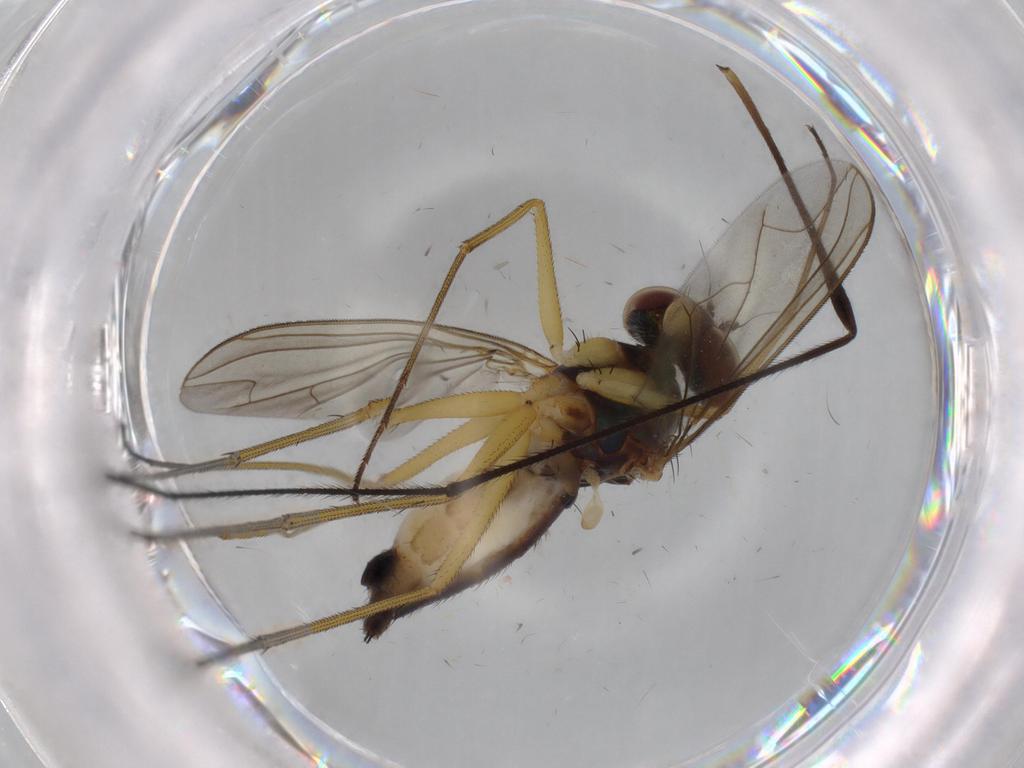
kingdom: Animalia
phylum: Arthropoda
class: Insecta
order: Diptera
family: Dolichopodidae
